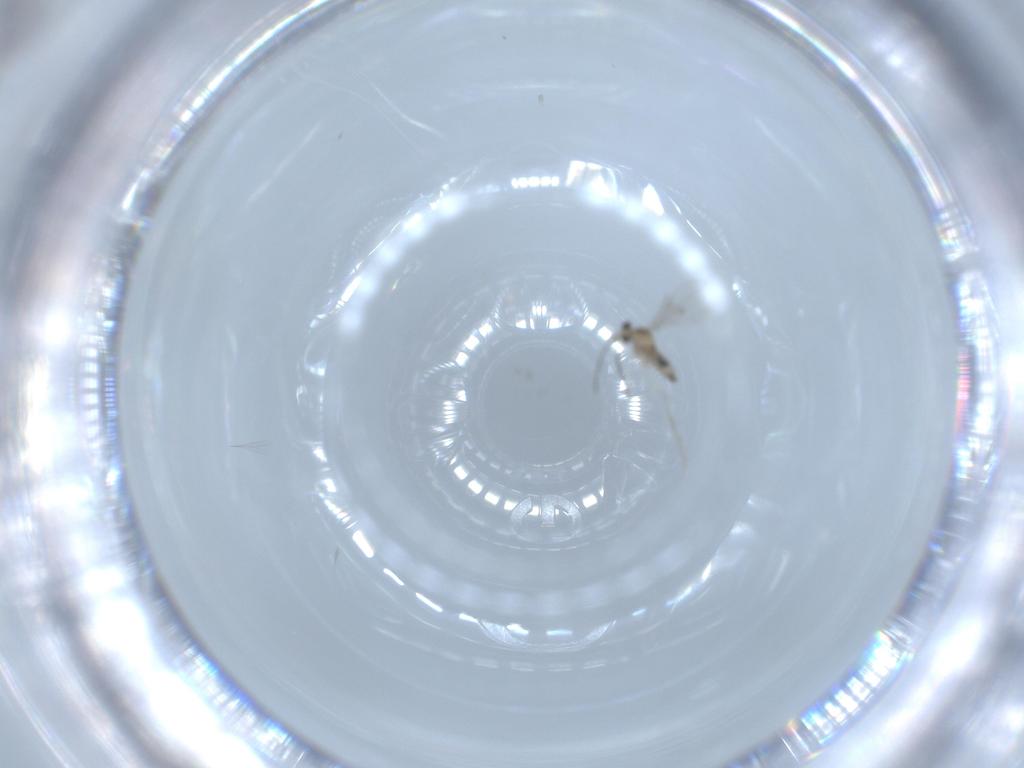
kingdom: Animalia
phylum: Arthropoda
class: Insecta
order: Diptera
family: Cecidomyiidae
